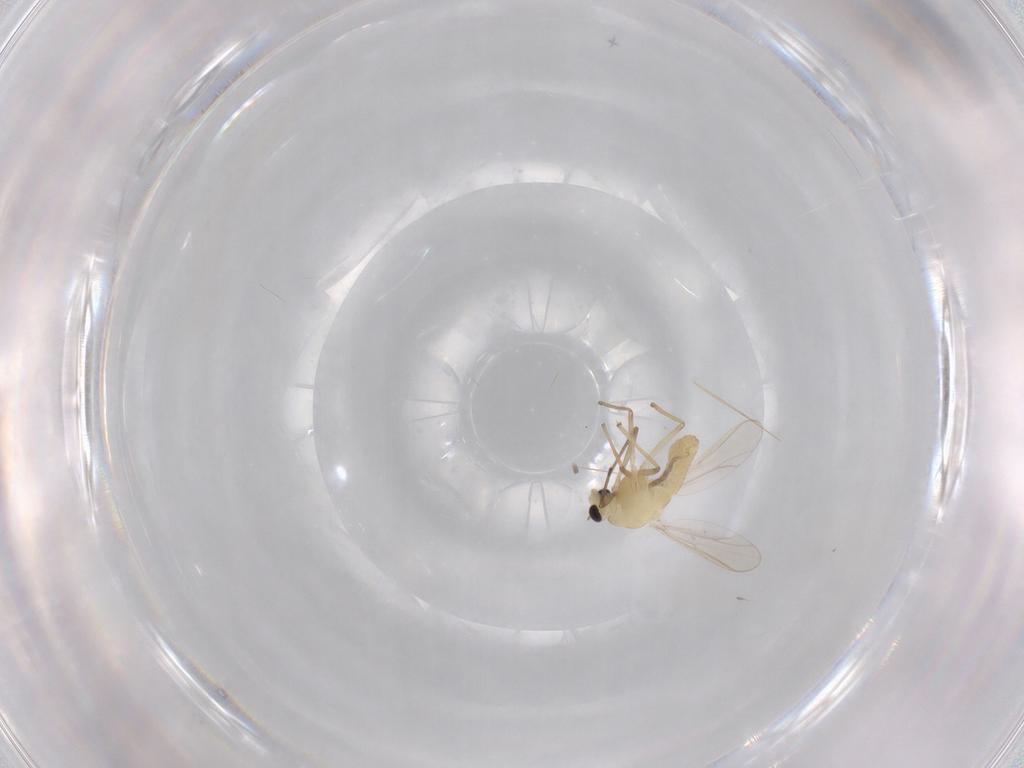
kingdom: Animalia
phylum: Arthropoda
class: Insecta
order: Diptera
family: Chironomidae
